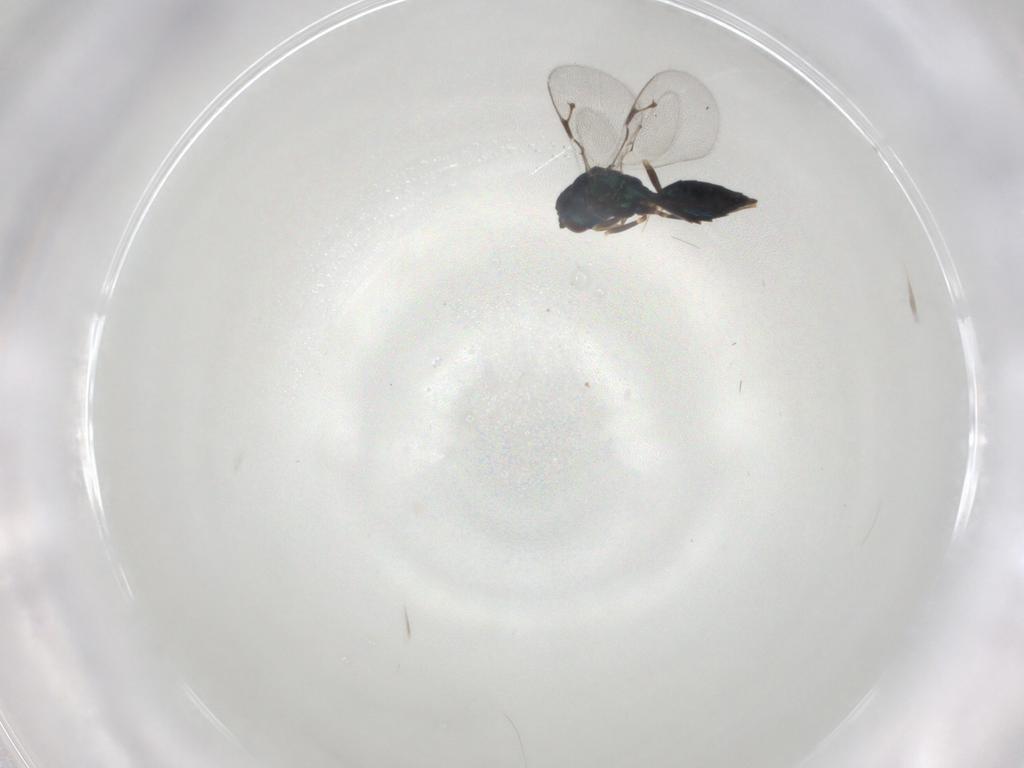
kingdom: Animalia
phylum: Arthropoda
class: Insecta
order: Hymenoptera
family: Pteromalidae
